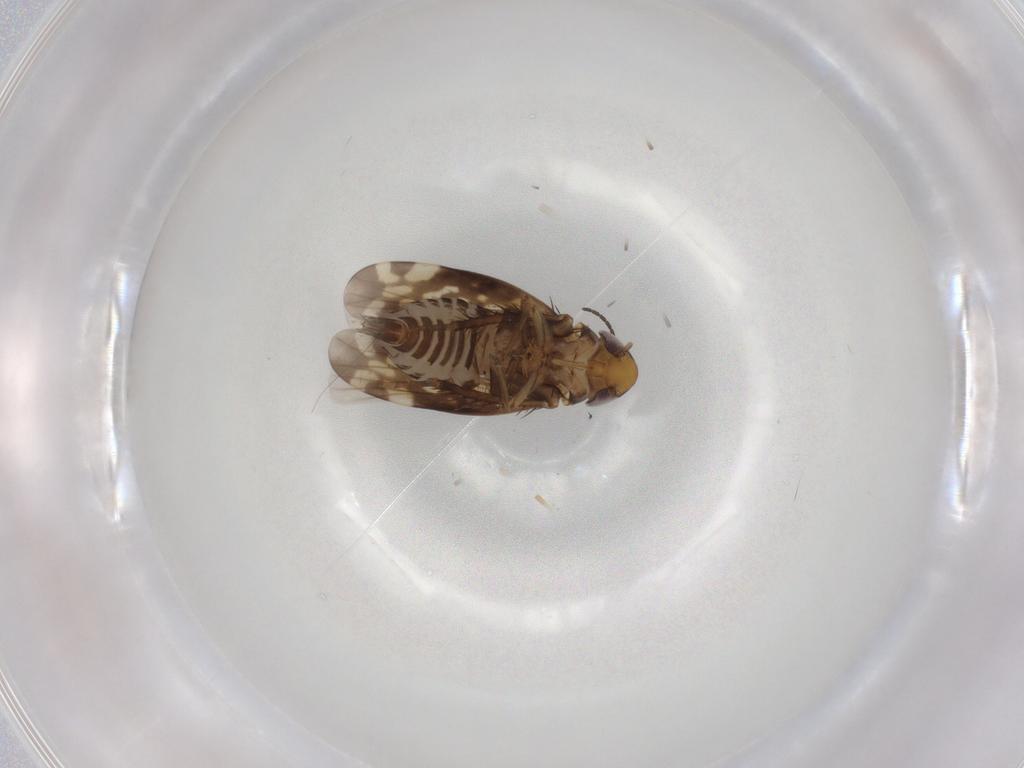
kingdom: Animalia
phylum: Arthropoda
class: Insecta
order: Hemiptera
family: Cicadellidae
